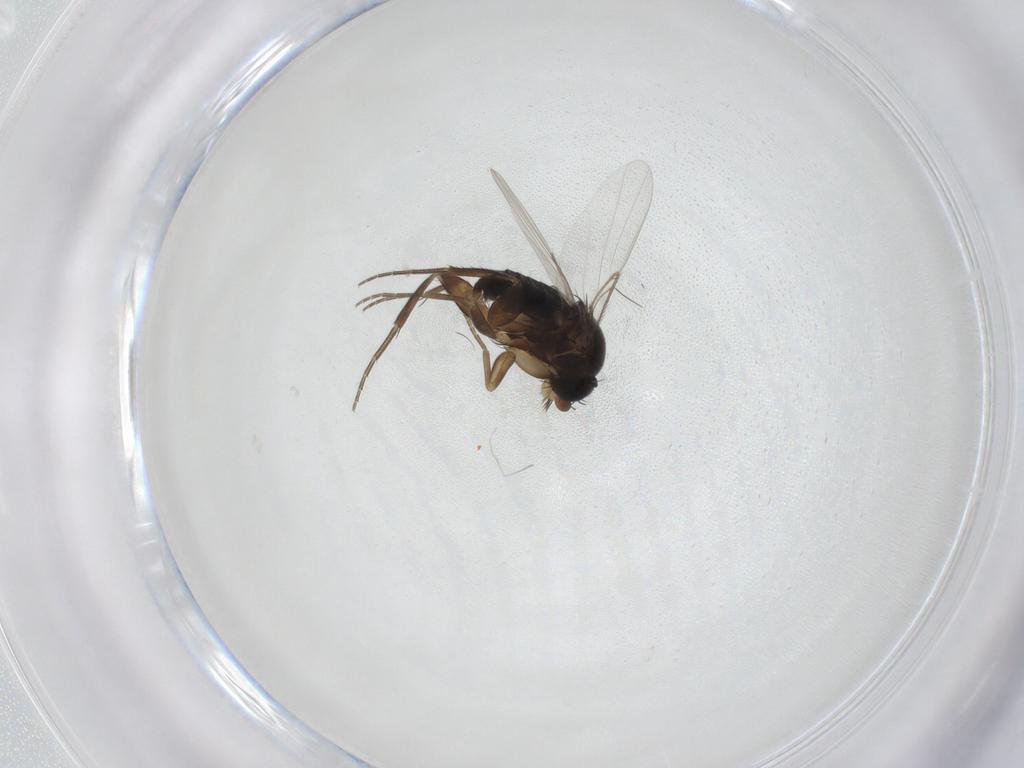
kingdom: Animalia
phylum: Arthropoda
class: Insecta
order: Diptera
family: Phoridae
